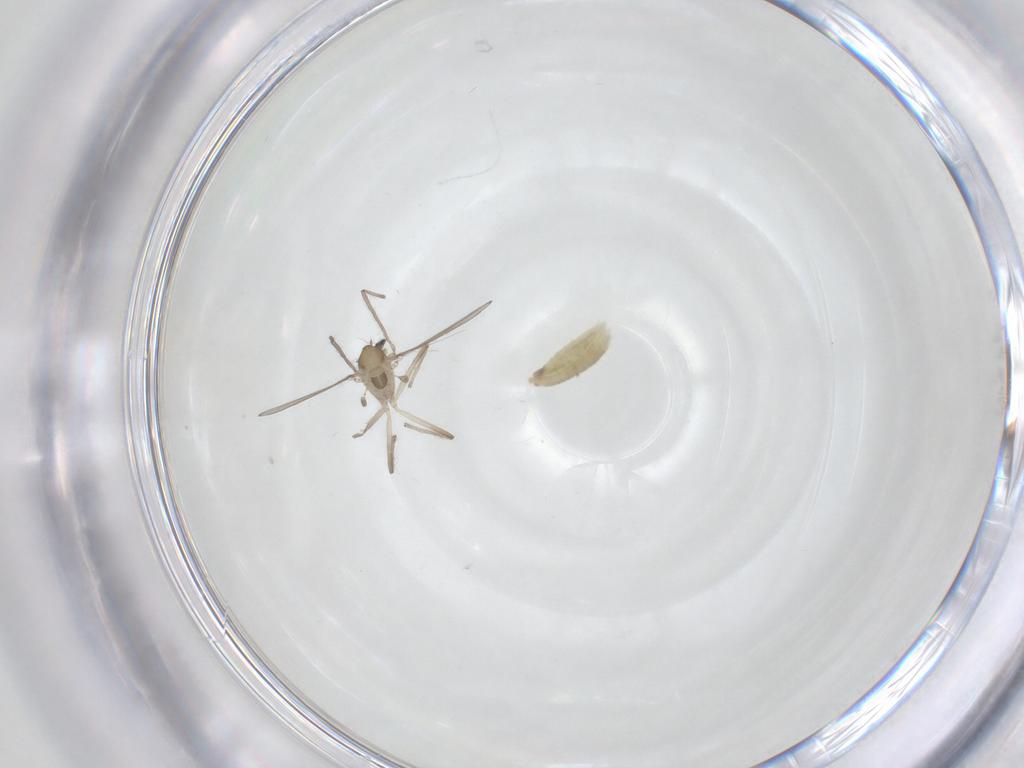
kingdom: Animalia
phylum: Arthropoda
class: Insecta
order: Diptera
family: Chironomidae
